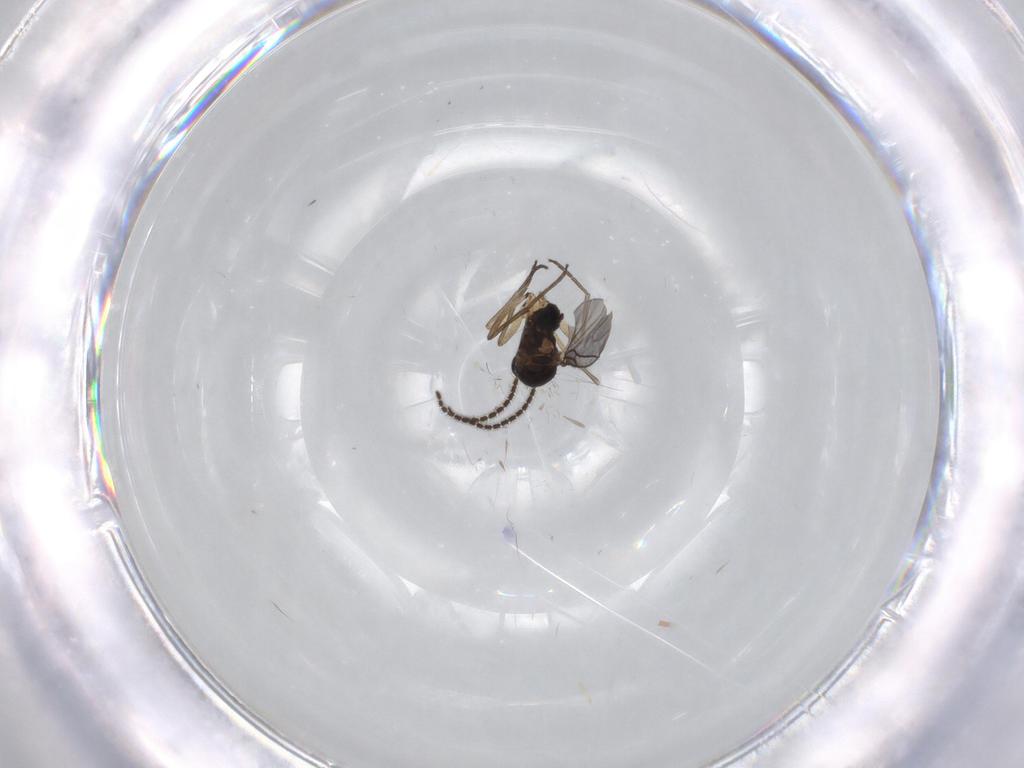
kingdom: Animalia
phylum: Arthropoda
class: Insecta
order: Diptera
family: Sciaridae
